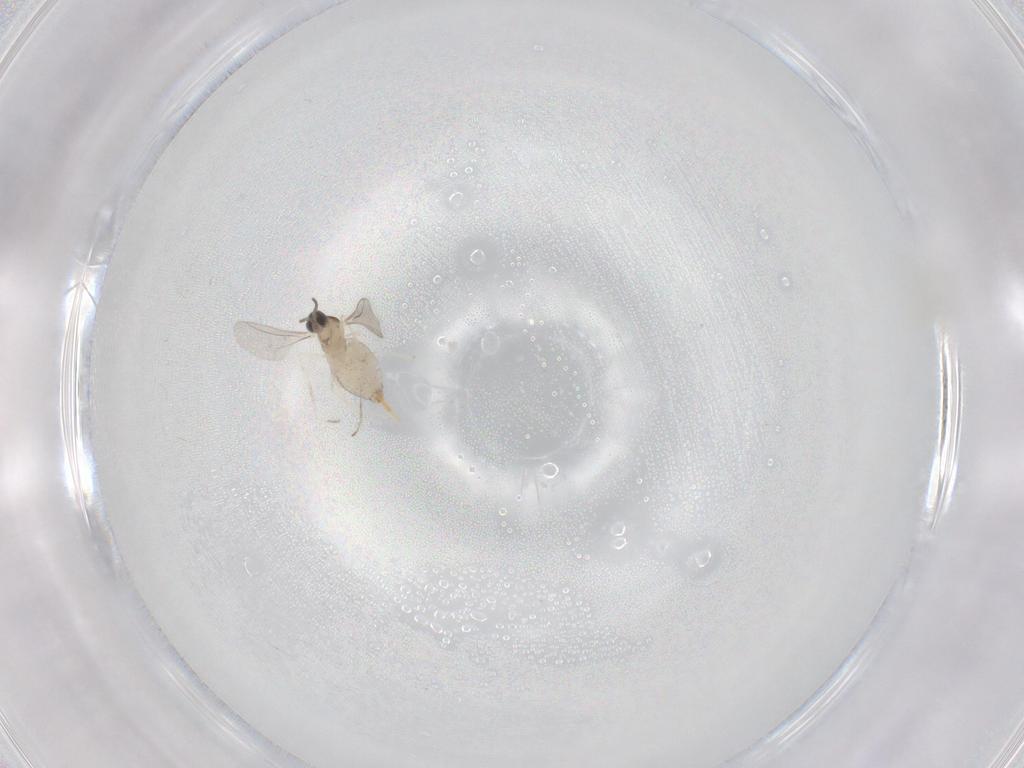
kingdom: Animalia
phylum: Arthropoda
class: Insecta
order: Diptera
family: Cecidomyiidae
